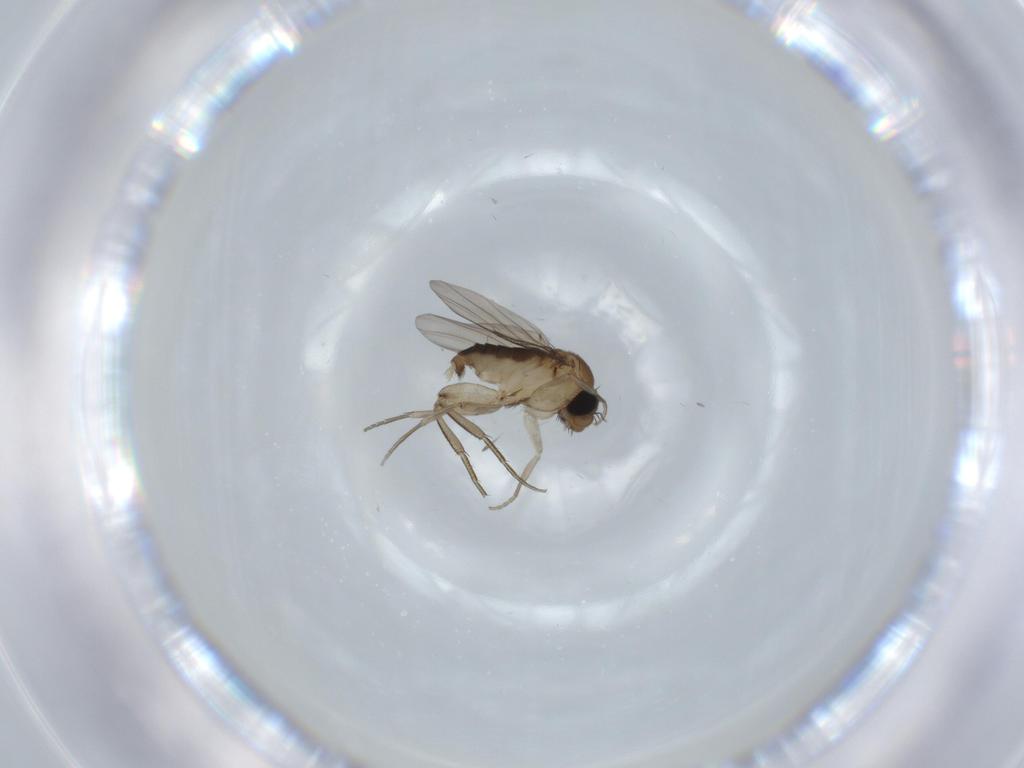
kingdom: Animalia
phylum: Arthropoda
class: Insecta
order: Diptera
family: Phoridae
